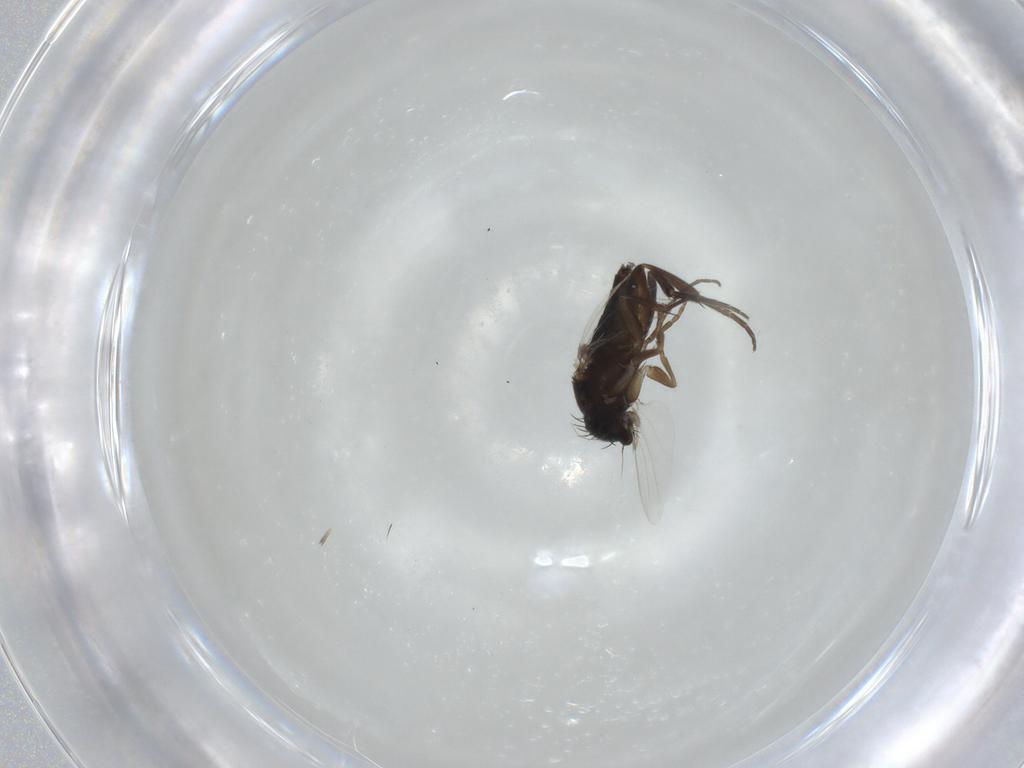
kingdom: Animalia
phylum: Arthropoda
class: Insecta
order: Diptera
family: Phoridae
